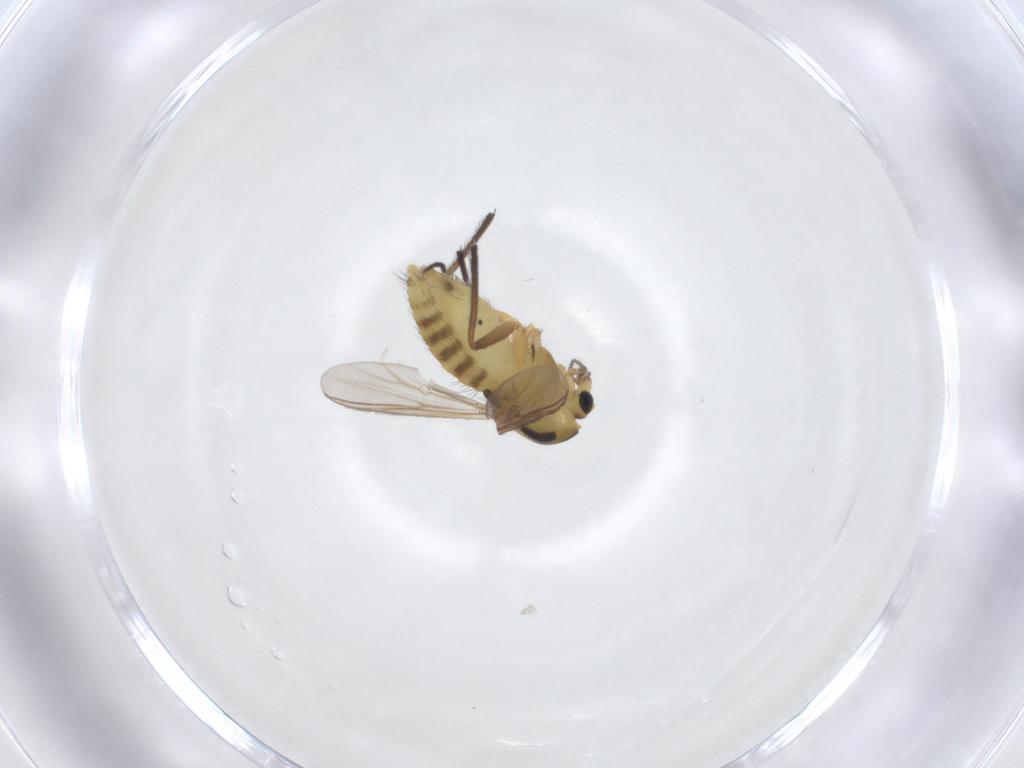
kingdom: Animalia
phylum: Arthropoda
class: Insecta
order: Diptera
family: Chironomidae
